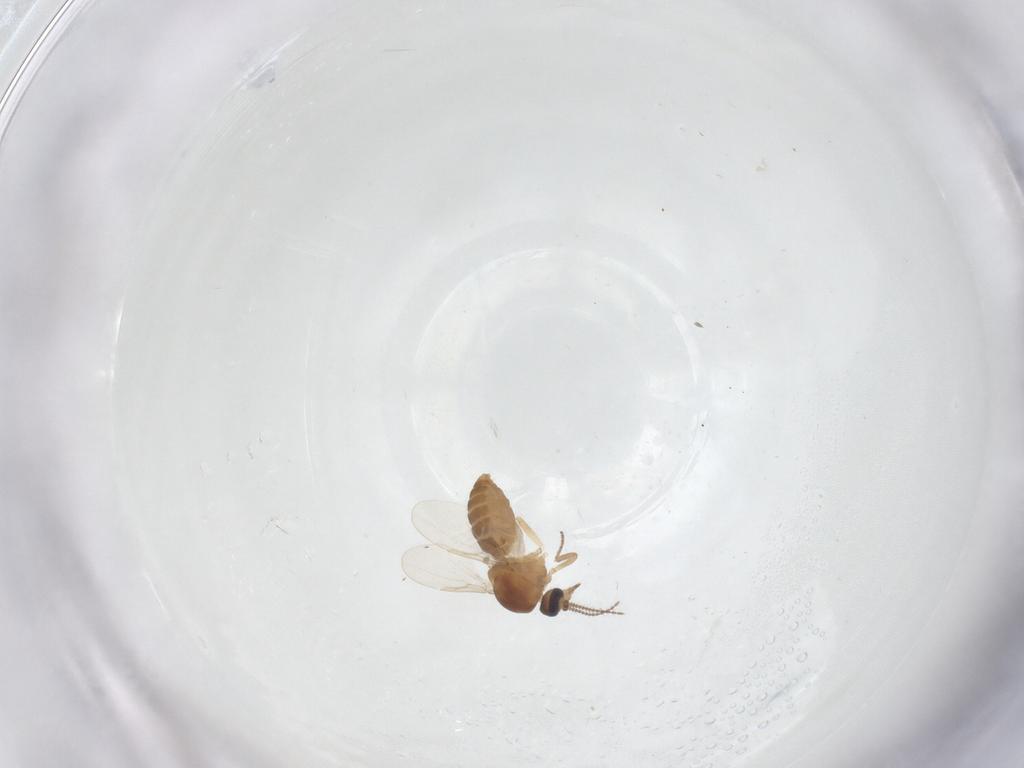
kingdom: Animalia
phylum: Arthropoda
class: Insecta
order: Diptera
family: Ceratopogonidae
